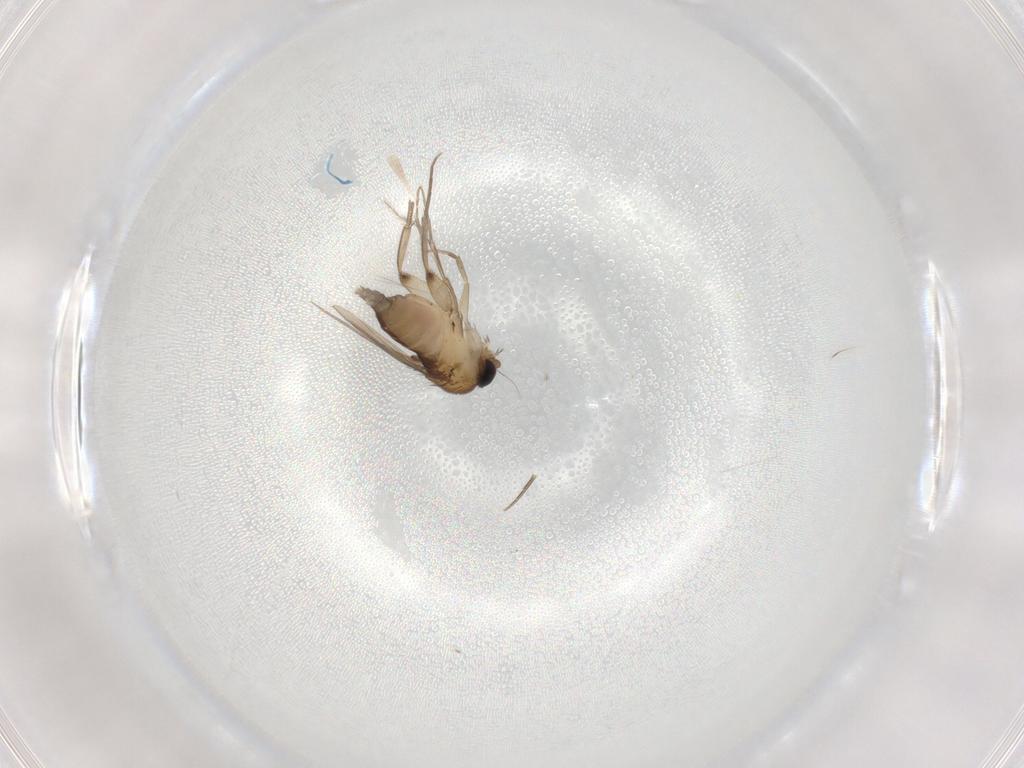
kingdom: Animalia
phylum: Arthropoda
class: Insecta
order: Diptera
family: Phoridae
